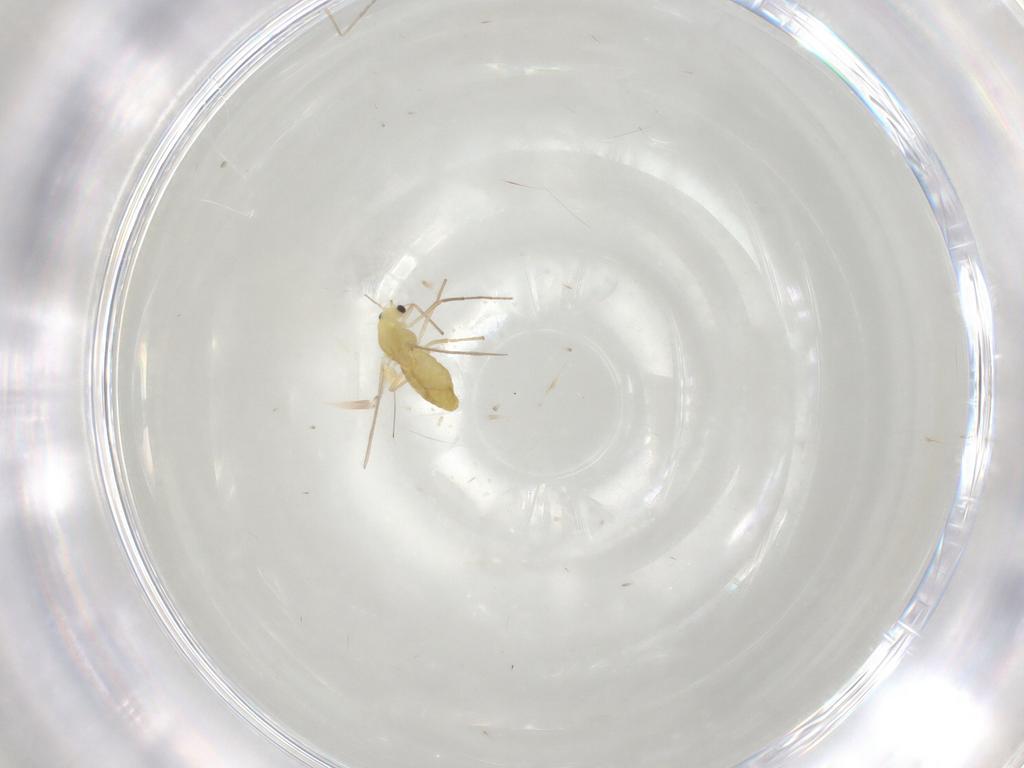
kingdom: Animalia
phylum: Arthropoda
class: Insecta
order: Diptera
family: Chironomidae
